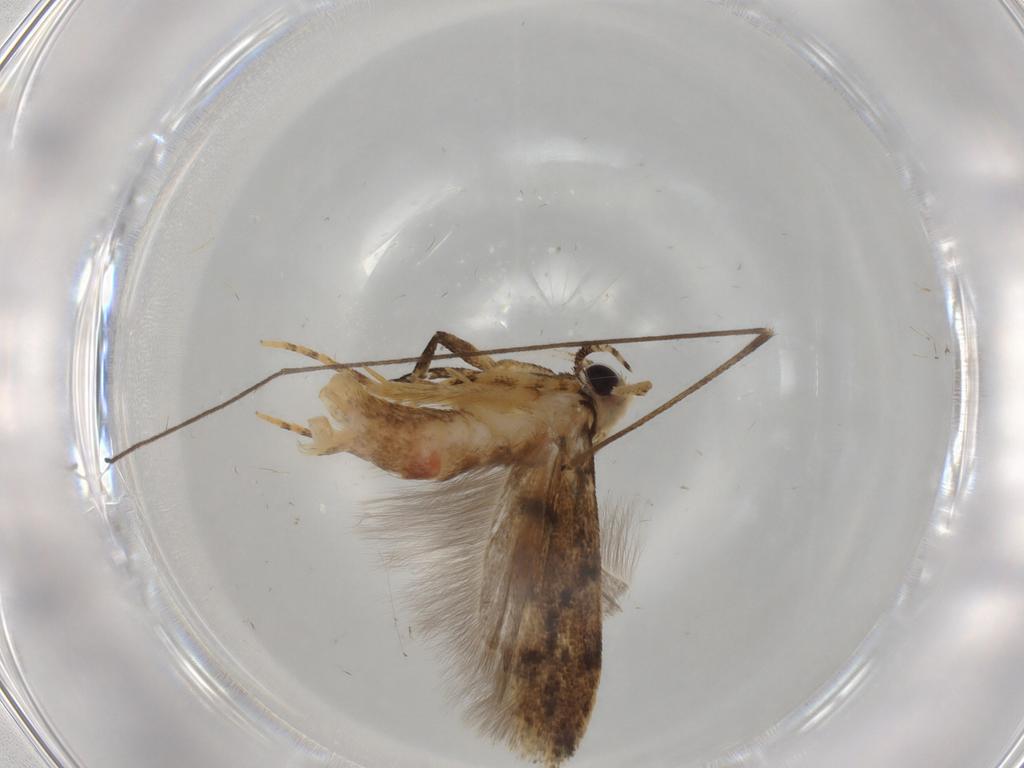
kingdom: Animalia
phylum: Arthropoda
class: Insecta
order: Lepidoptera
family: Gelechiidae
